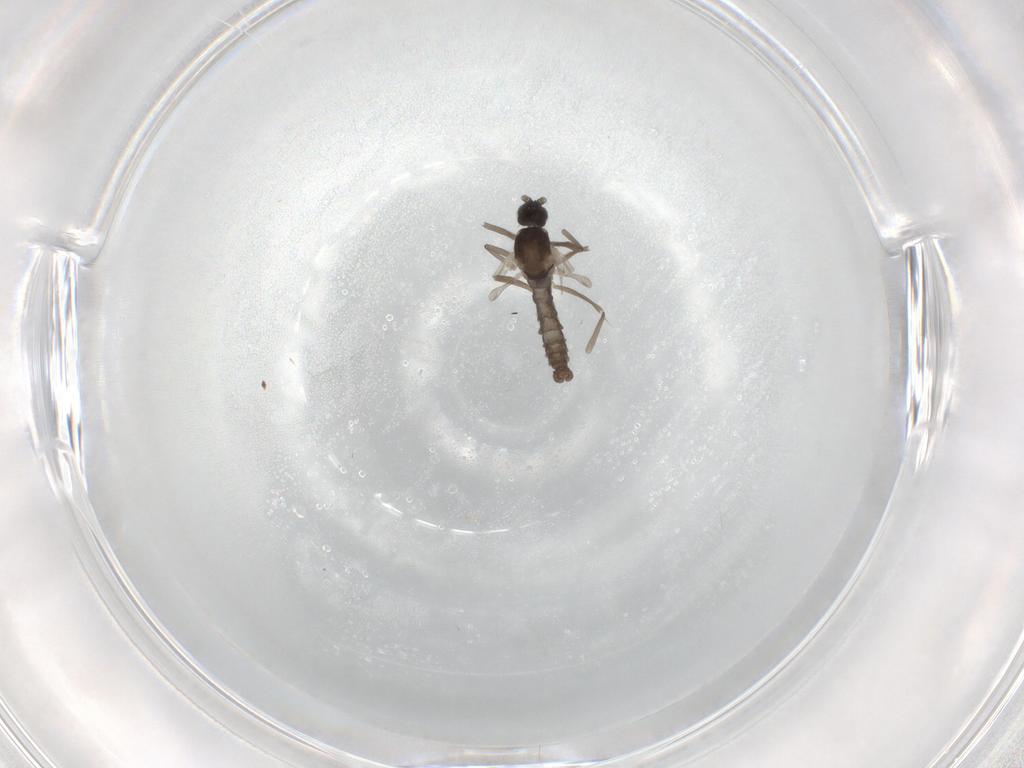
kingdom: Animalia
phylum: Arthropoda
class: Insecta
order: Diptera
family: Cecidomyiidae
